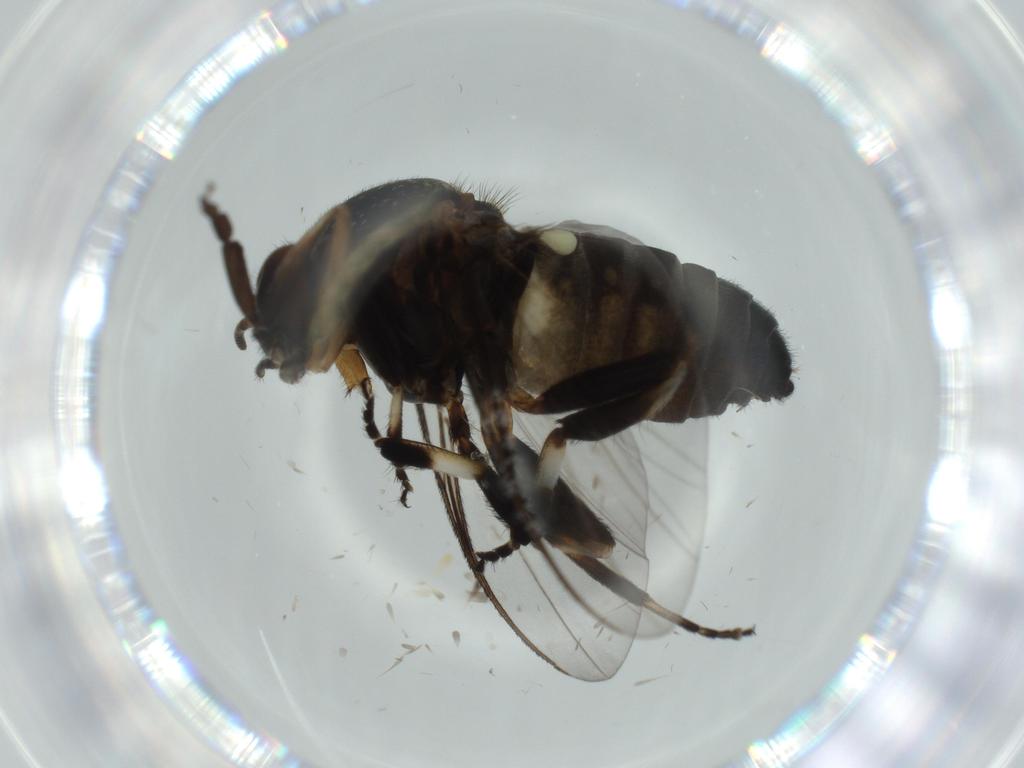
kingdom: Animalia
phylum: Arthropoda
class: Insecta
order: Diptera
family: Cecidomyiidae
